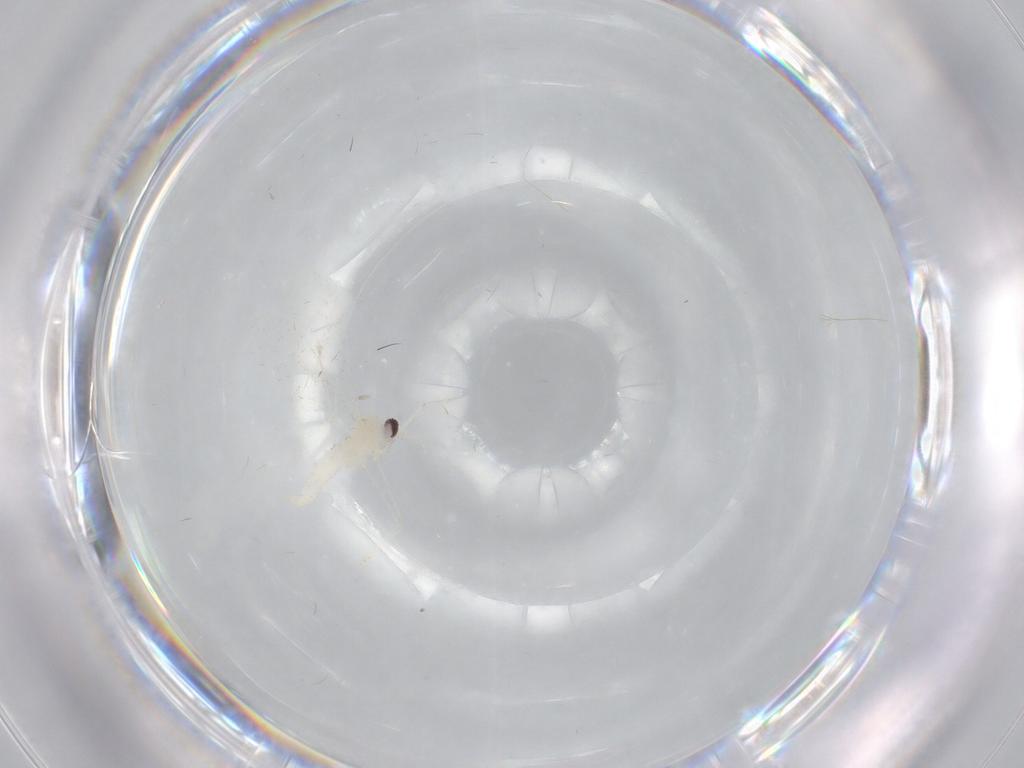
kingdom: Animalia
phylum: Arthropoda
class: Insecta
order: Diptera
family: Cecidomyiidae
